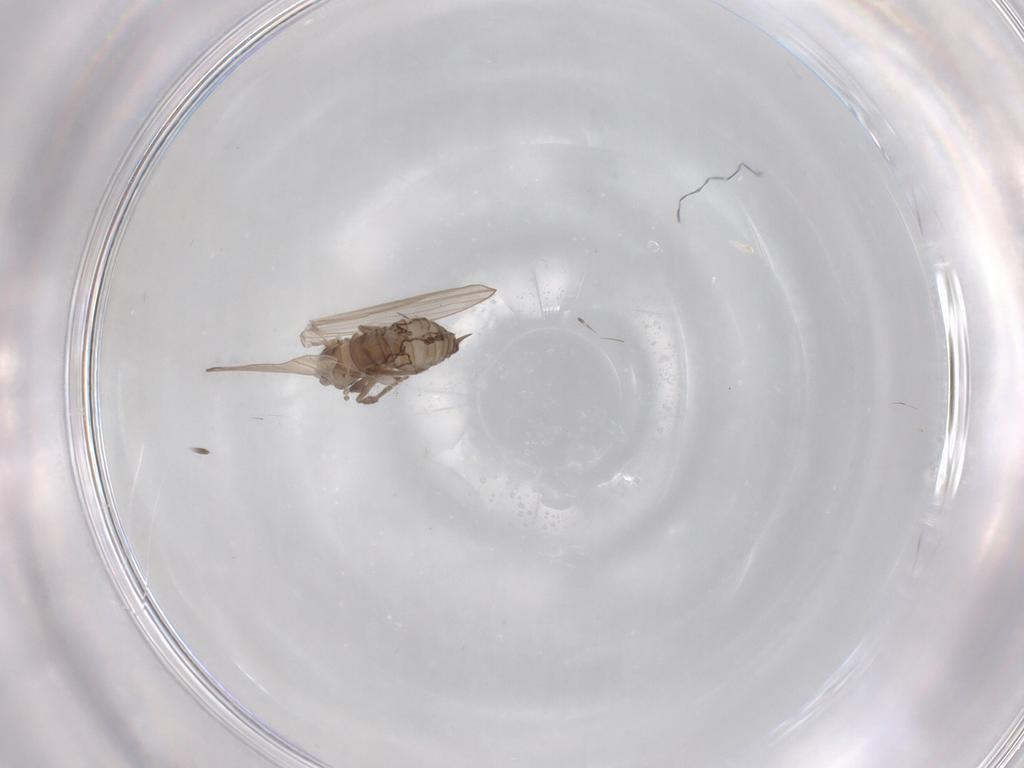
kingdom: Animalia
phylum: Arthropoda
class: Insecta
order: Diptera
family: Psychodidae
